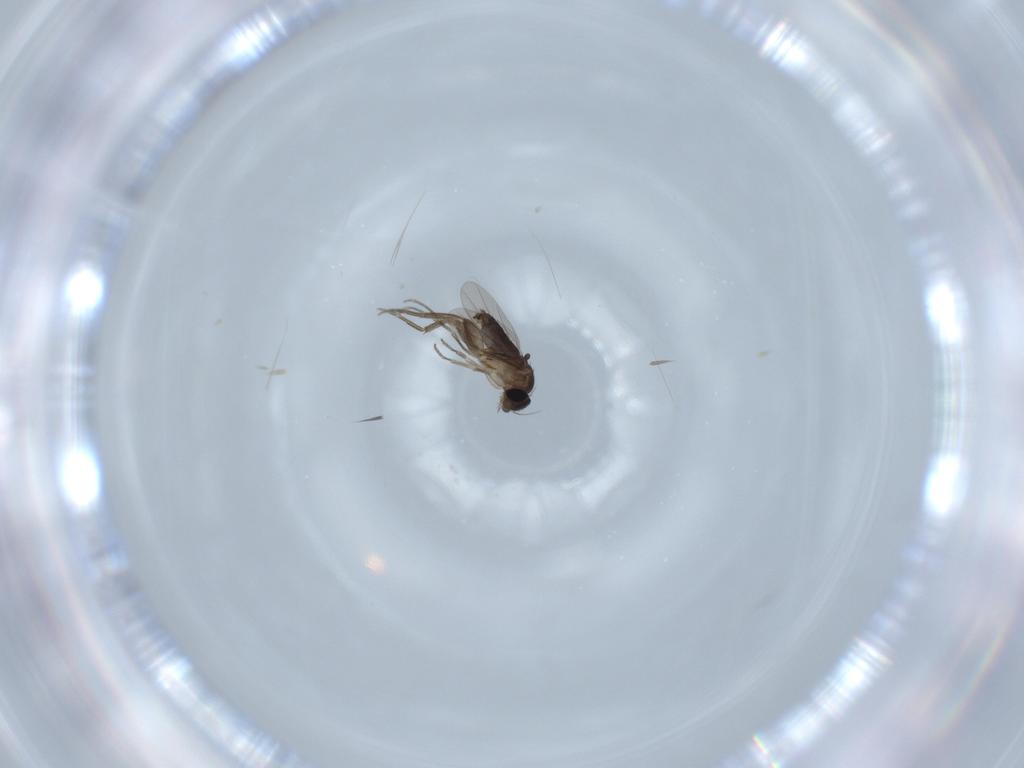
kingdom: Animalia
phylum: Arthropoda
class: Insecta
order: Diptera
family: Phoridae
